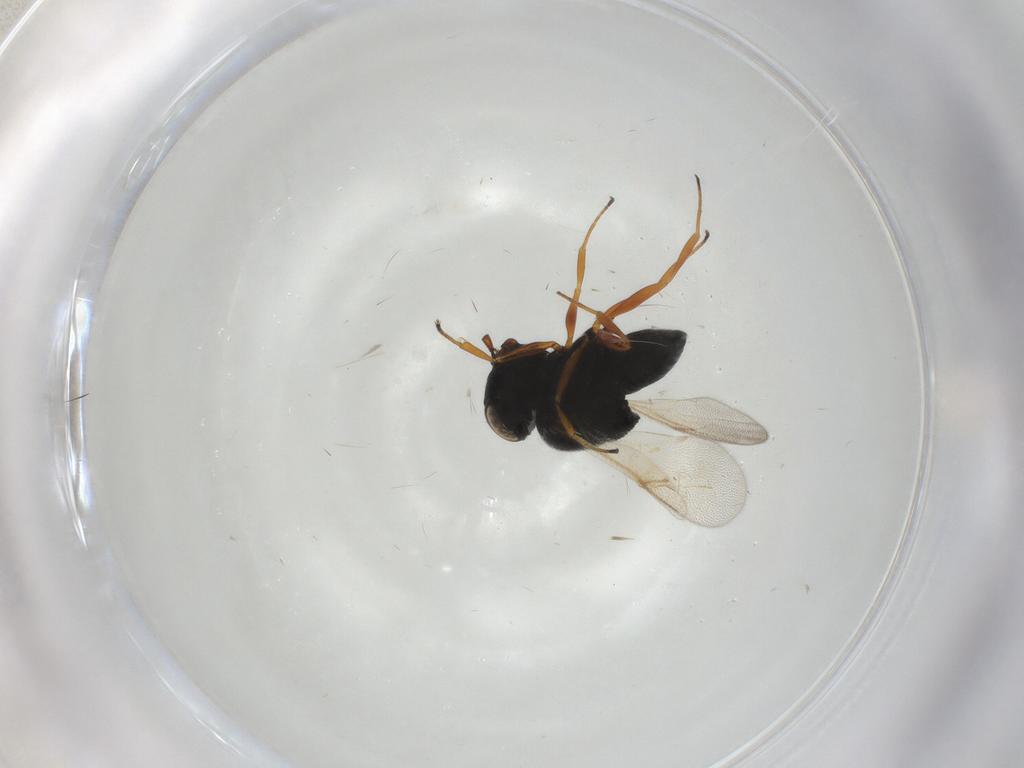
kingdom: Animalia
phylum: Arthropoda
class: Insecta
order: Hymenoptera
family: Scelionidae
